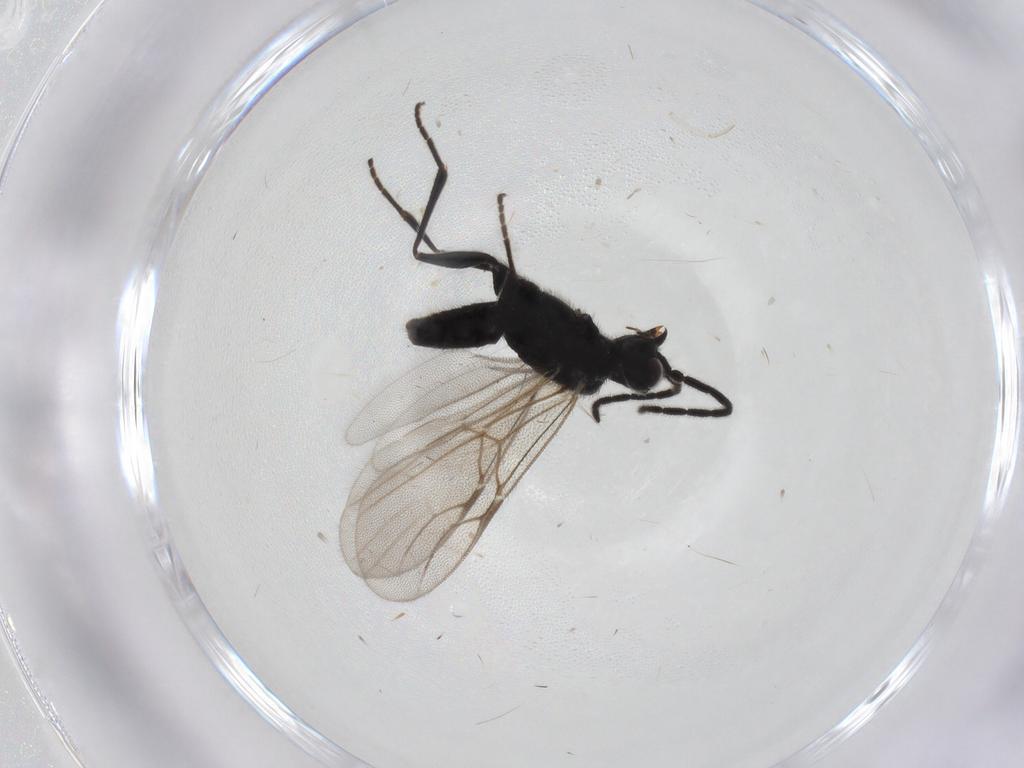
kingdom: Animalia
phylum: Arthropoda
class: Insecta
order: Hymenoptera
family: Dryinidae
